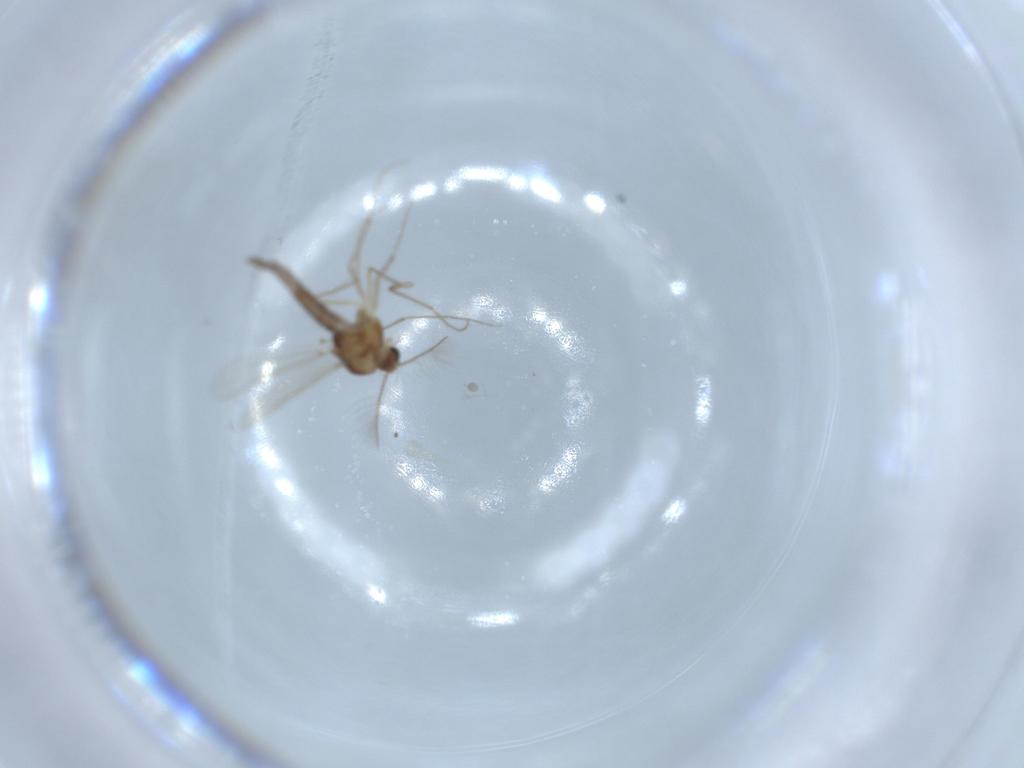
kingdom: Animalia
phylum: Arthropoda
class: Insecta
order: Diptera
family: Chironomidae
